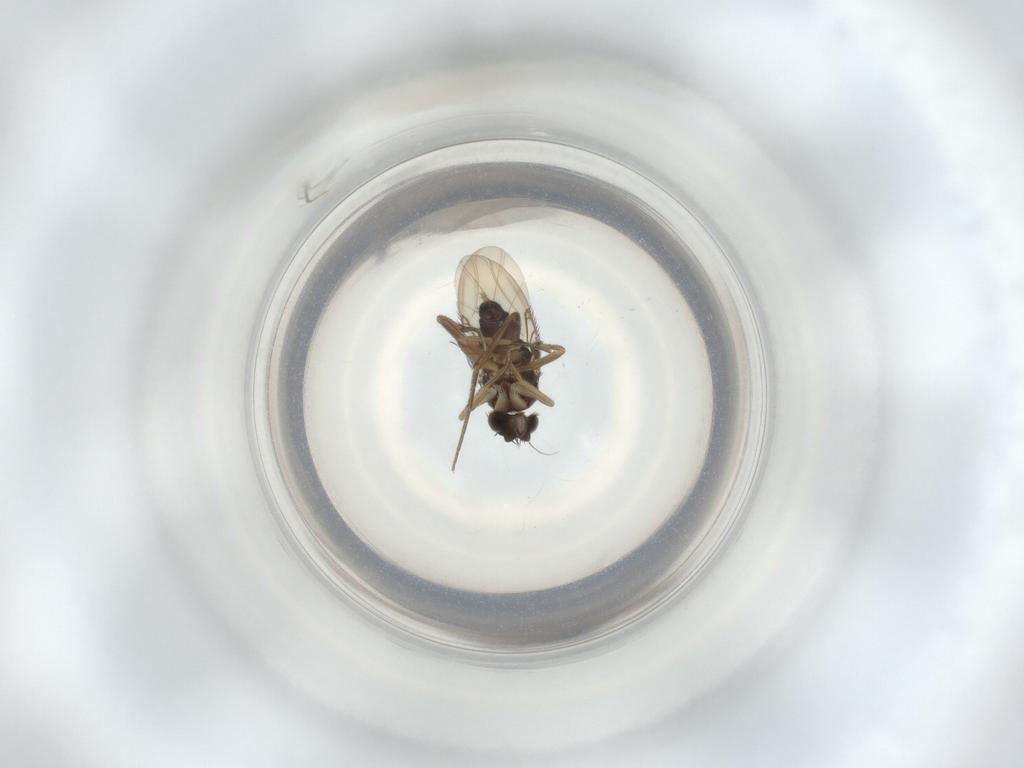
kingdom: Animalia
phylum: Arthropoda
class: Insecta
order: Diptera
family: Phoridae
